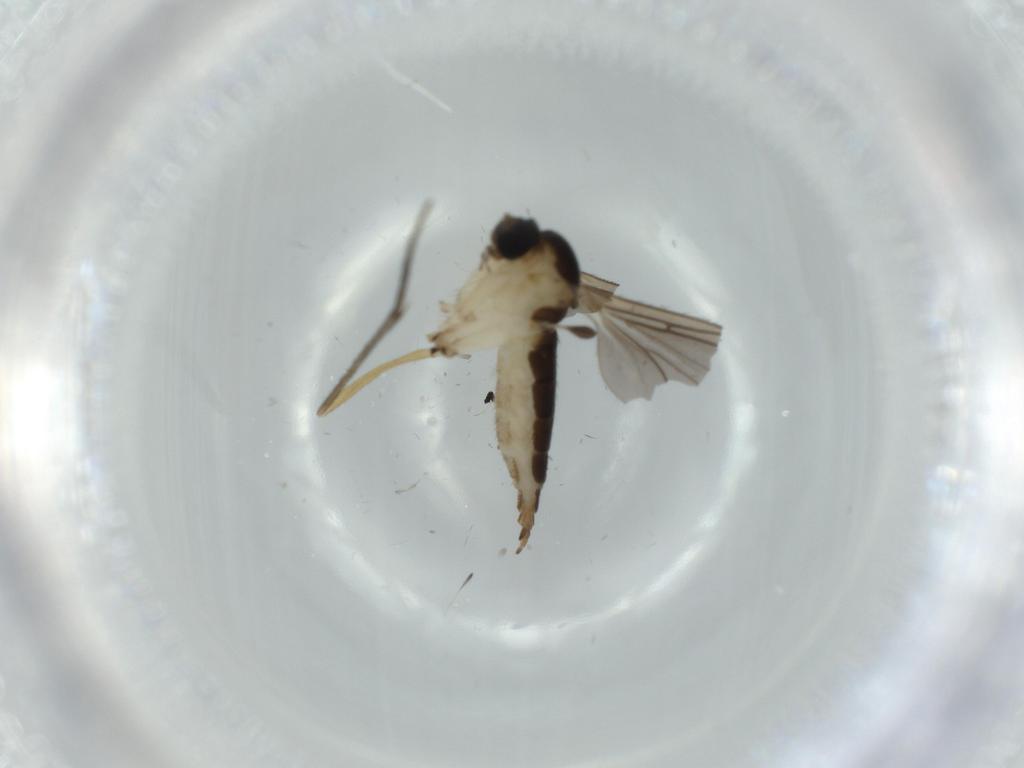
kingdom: Animalia
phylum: Arthropoda
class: Insecta
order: Diptera
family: Sciaridae
